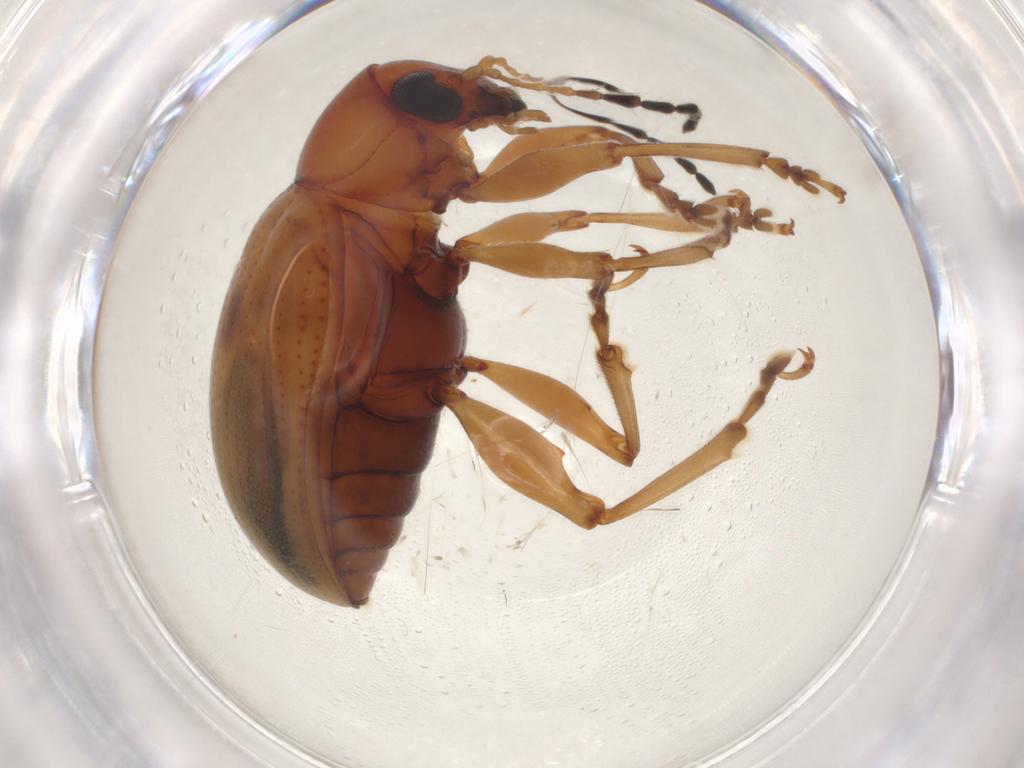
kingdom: Animalia
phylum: Arthropoda
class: Insecta
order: Coleoptera
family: Chrysomelidae
